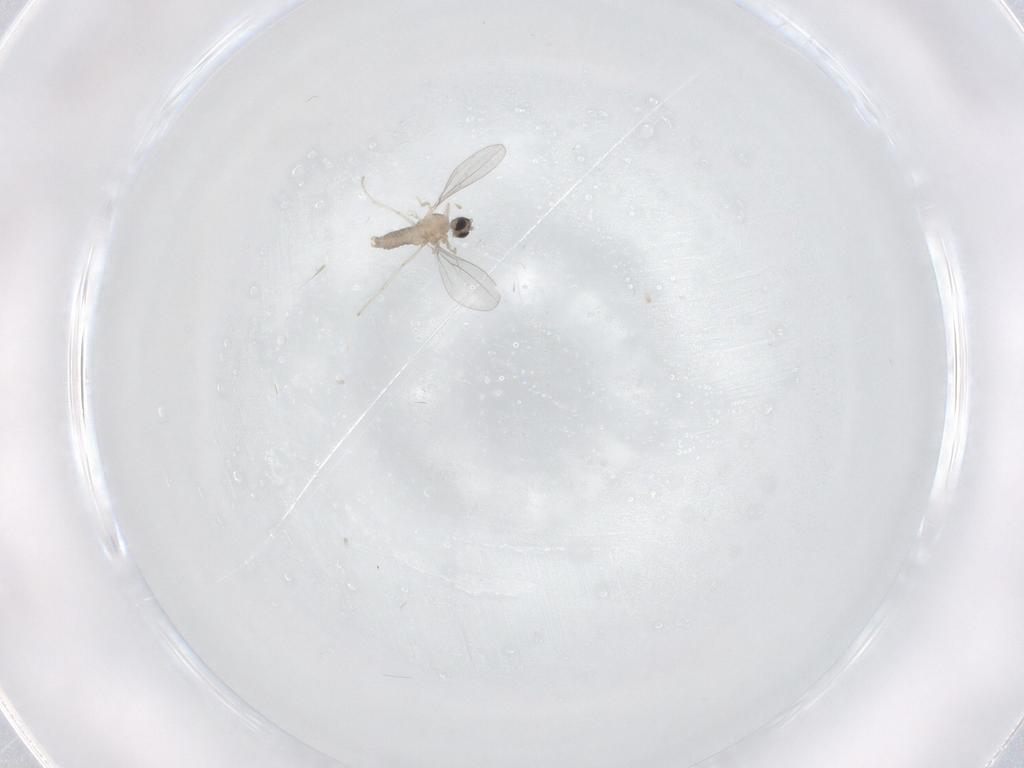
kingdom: Animalia
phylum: Arthropoda
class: Insecta
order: Diptera
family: Cecidomyiidae
